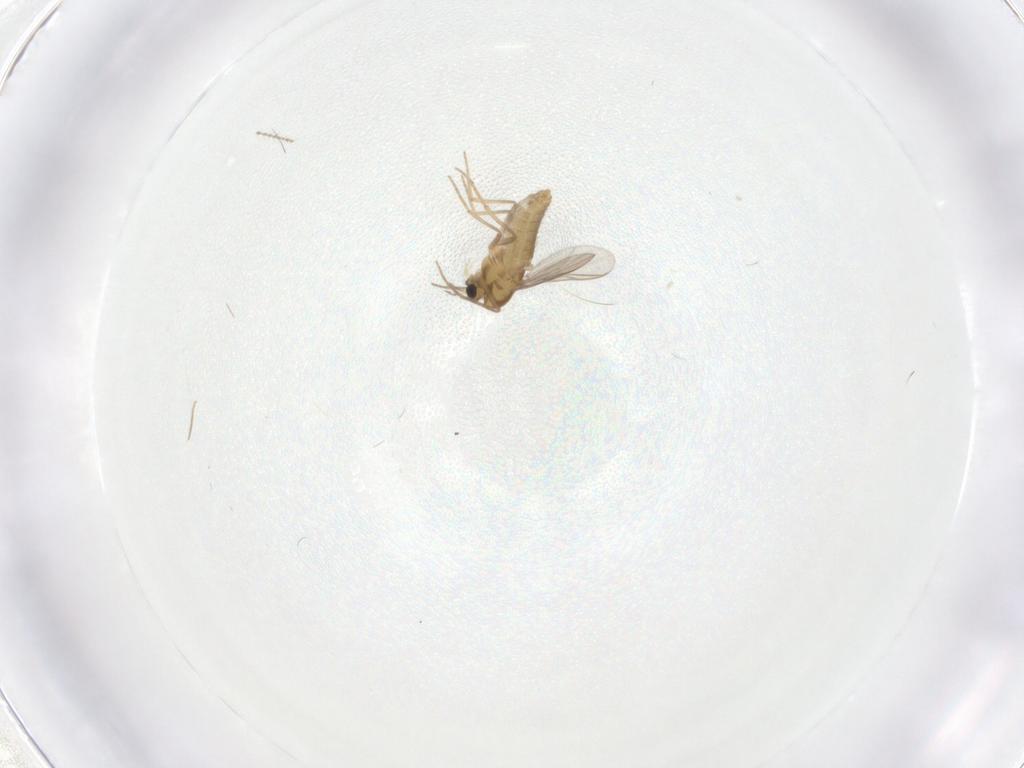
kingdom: Animalia
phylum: Arthropoda
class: Insecta
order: Diptera
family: Chironomidae
